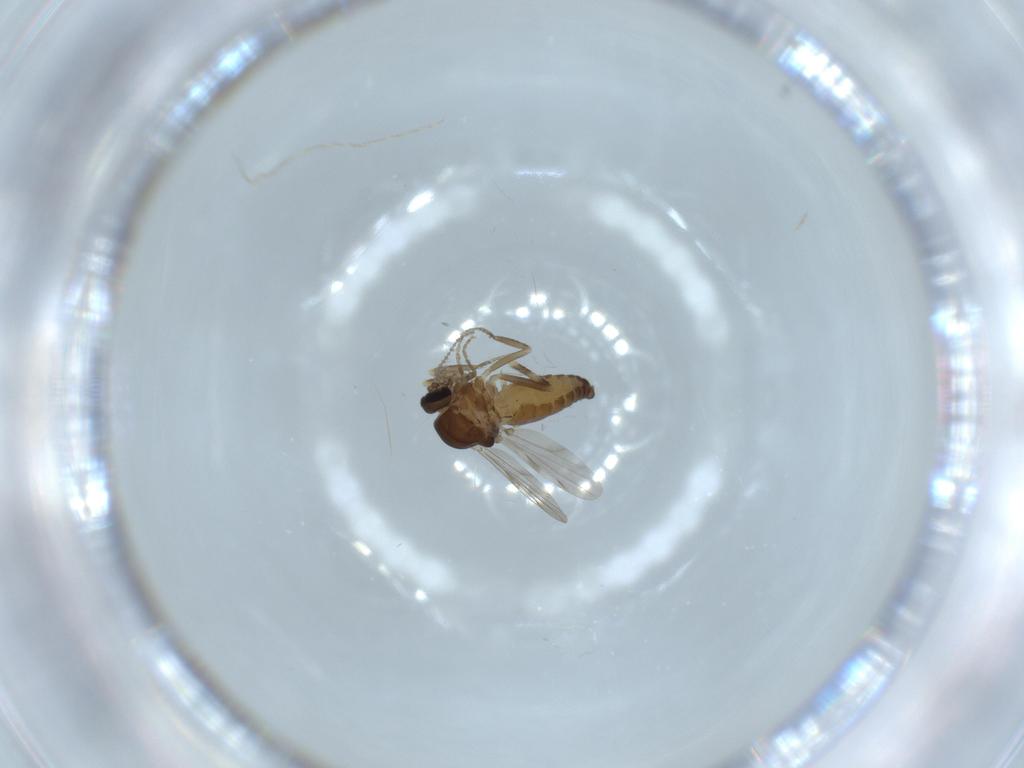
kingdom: Animalia
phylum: Arthropoda
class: Insecta
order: Diptera
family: Ceratopogonidae
